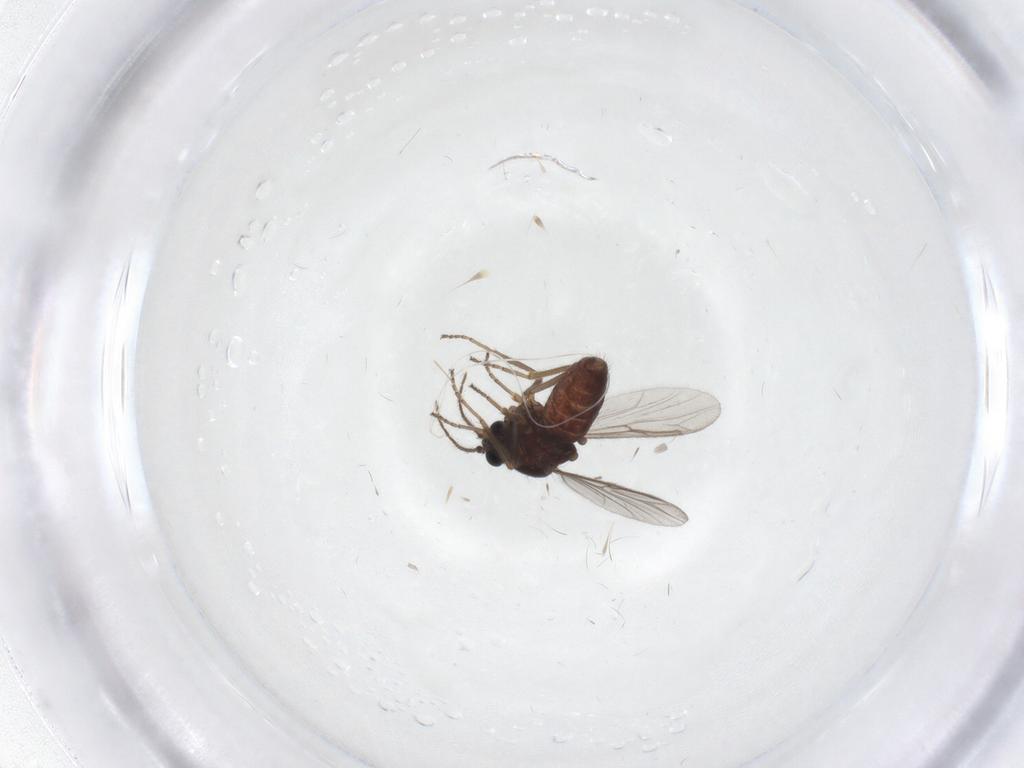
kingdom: Animalia
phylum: Arthropoda
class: Insecta
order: Diptera
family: Ceratopogonidae
